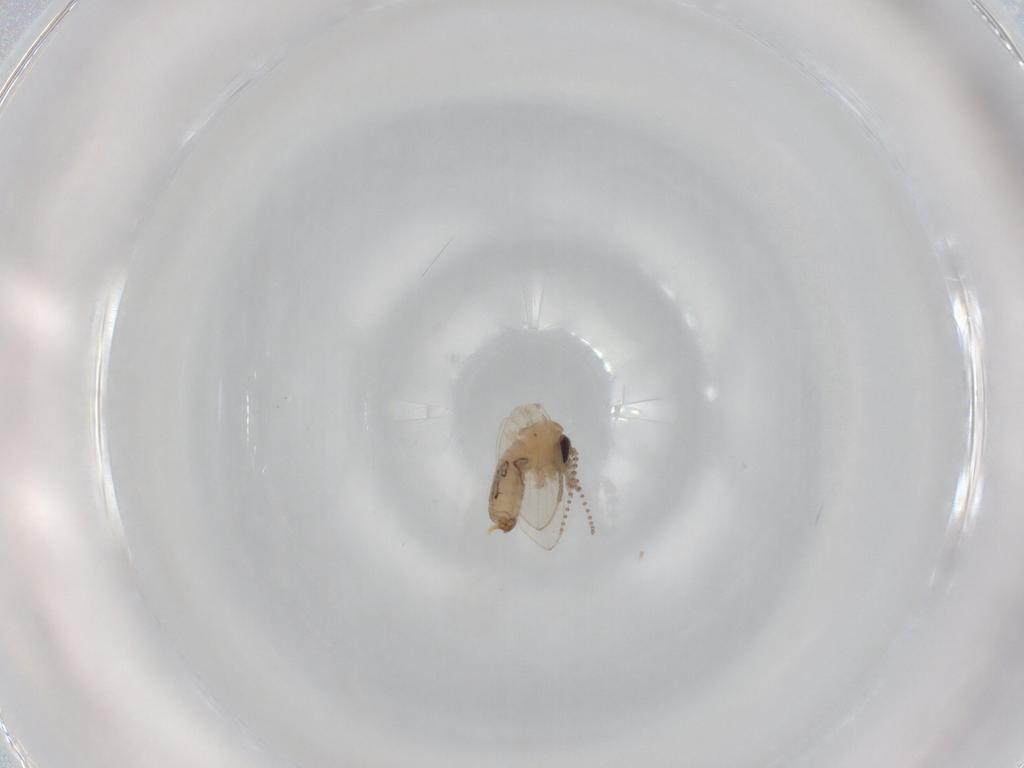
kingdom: Animalia
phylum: Arthropoda
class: Insecta
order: Diptera
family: Psychodidae
